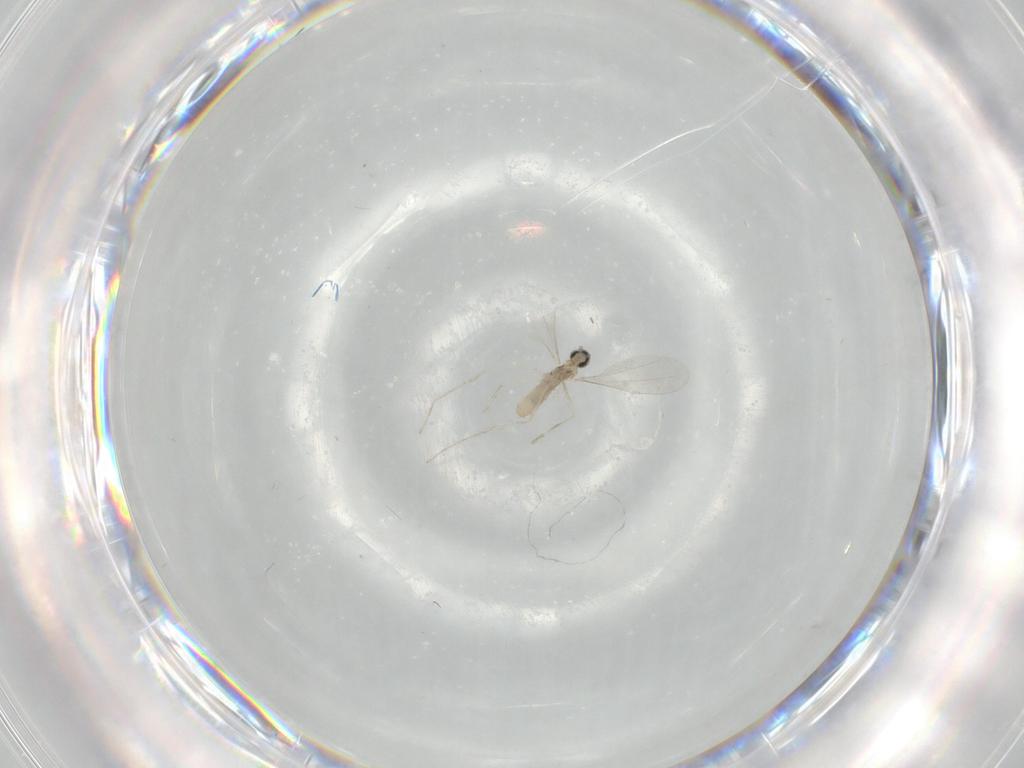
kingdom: Animalia
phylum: Arthropoda
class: Insecta
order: Diptera
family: Cecidomyiidae
